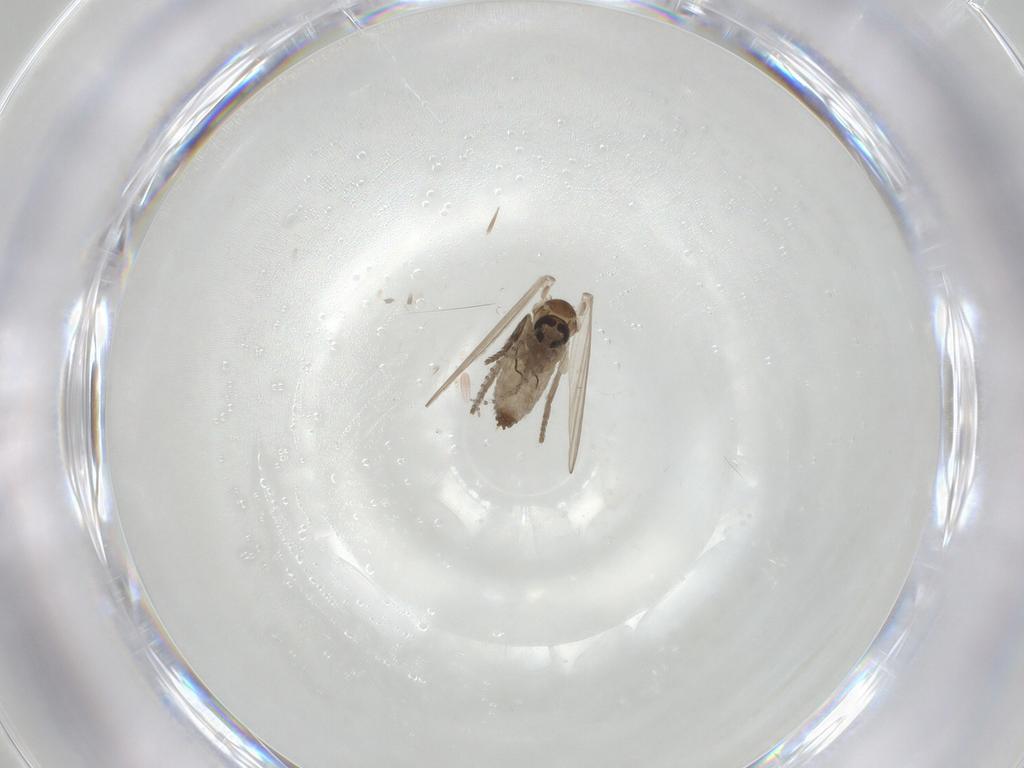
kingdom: Animalia
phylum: Arthropoda
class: Insecta
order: Diptera
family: Psychodidae
